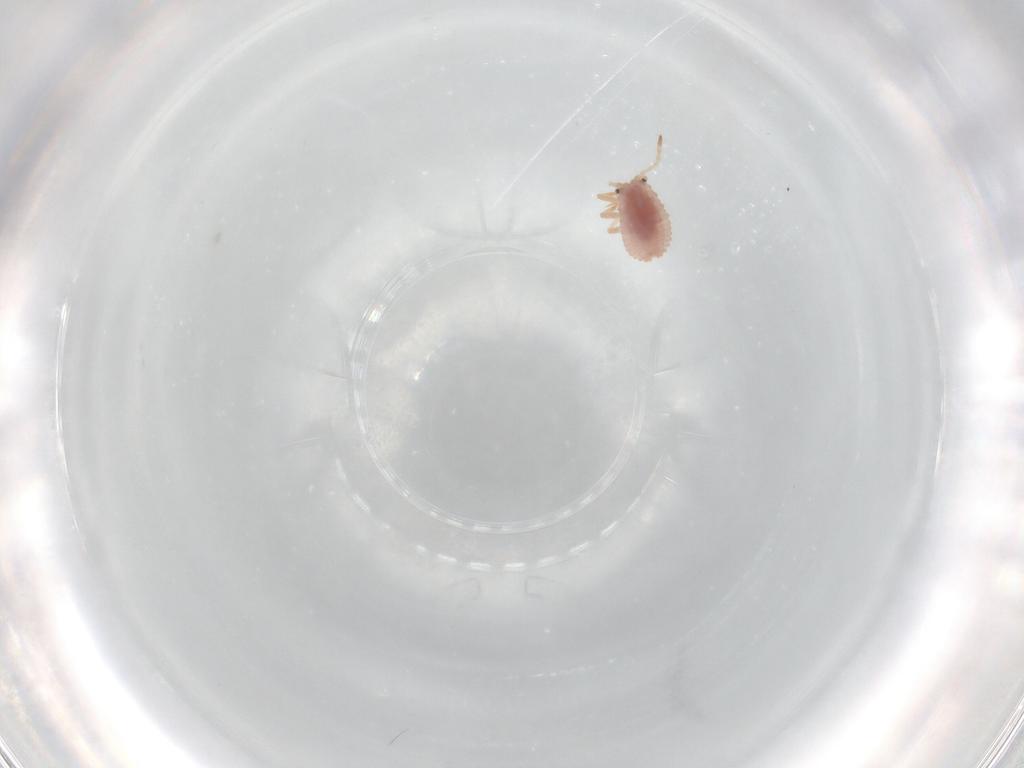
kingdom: Animalia
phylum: Arthropoda
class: Insecta
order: Hemiptera
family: Coccoidea_incertae_sedis
